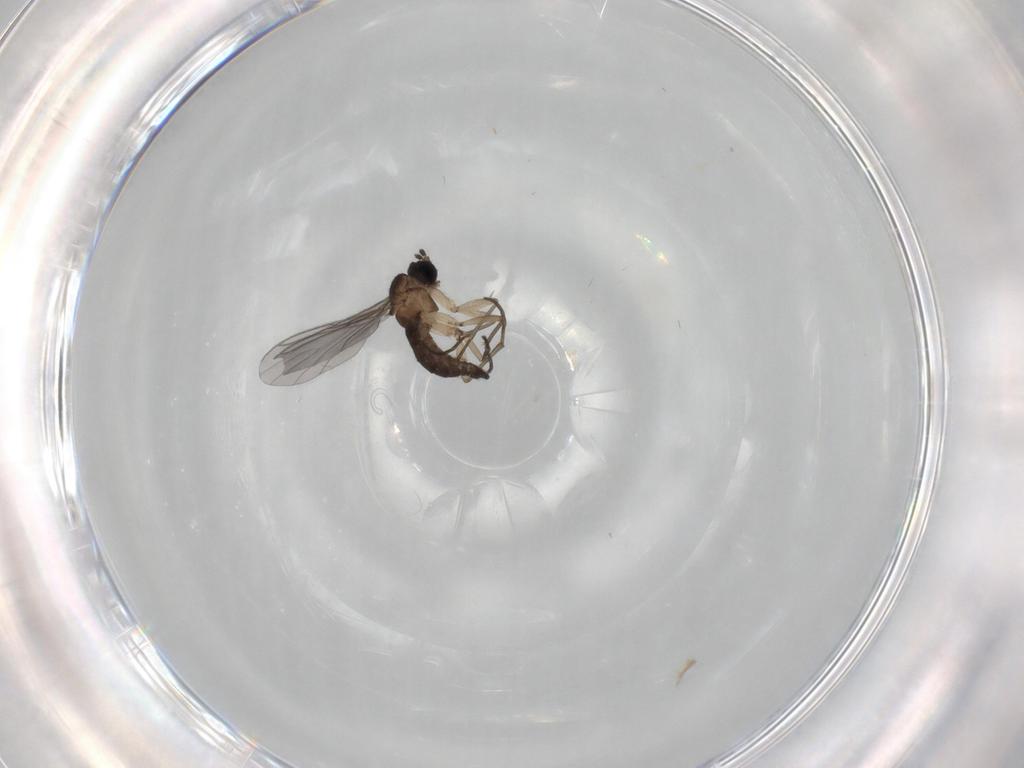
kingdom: Animalia
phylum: Arthropoda
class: Insecta
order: Diptera
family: Sciaridae
